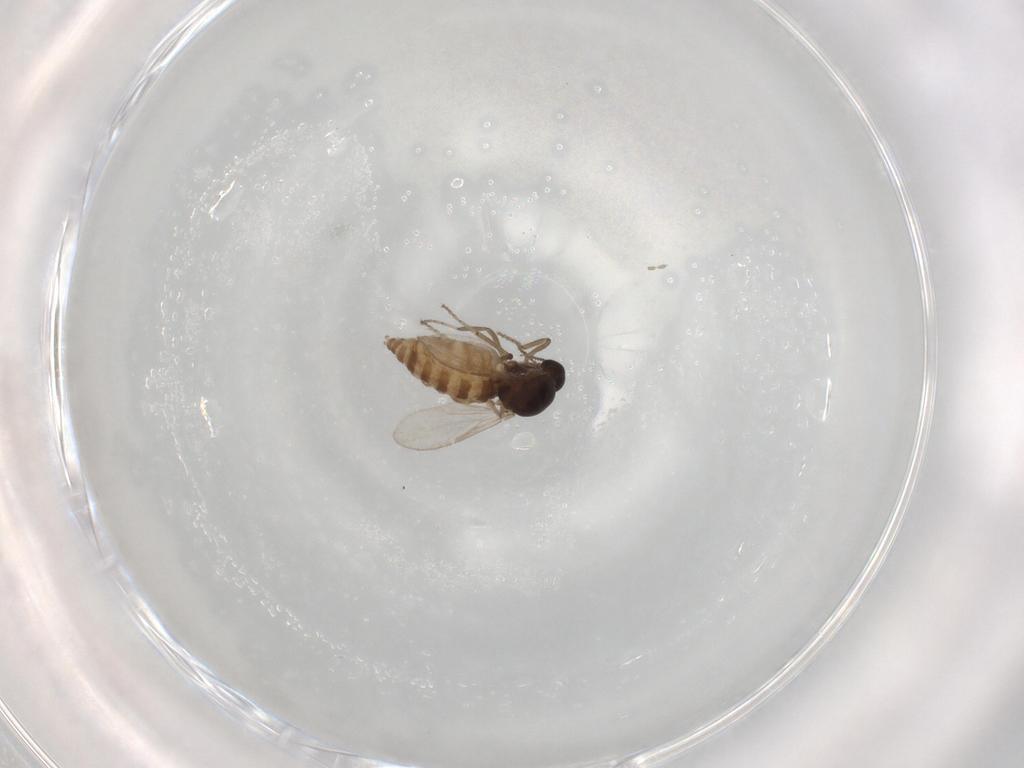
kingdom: Animalia
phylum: Arthropoda
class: Insecta
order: Diptera
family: Ceratopogonidae
